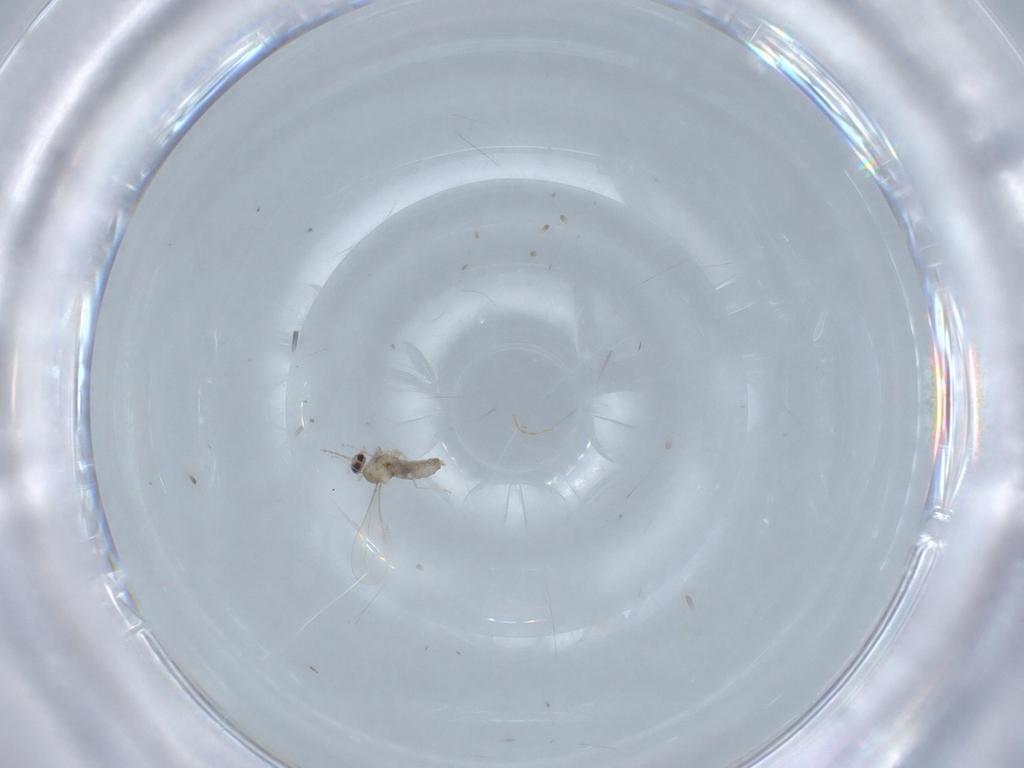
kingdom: Animalia
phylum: Arthropoda
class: Insecta
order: Diptera
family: Cecidomyiidae
